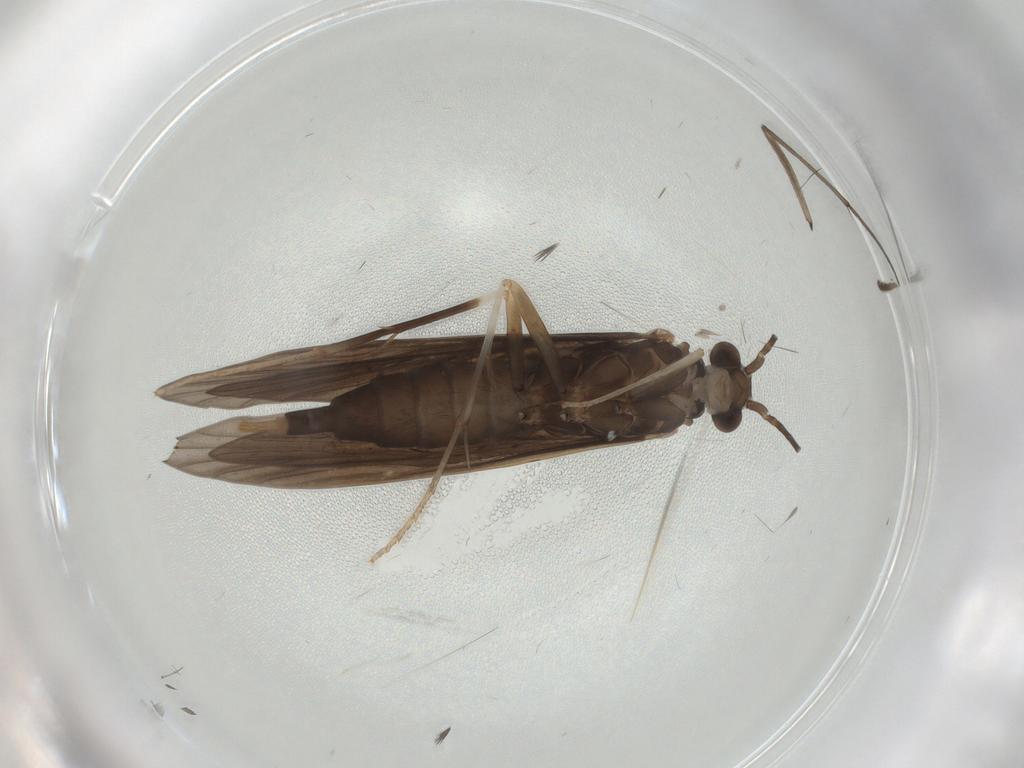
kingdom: Animalia
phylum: Arthropoda
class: Insecta
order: Trichoptera
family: Xiphocentronidae
